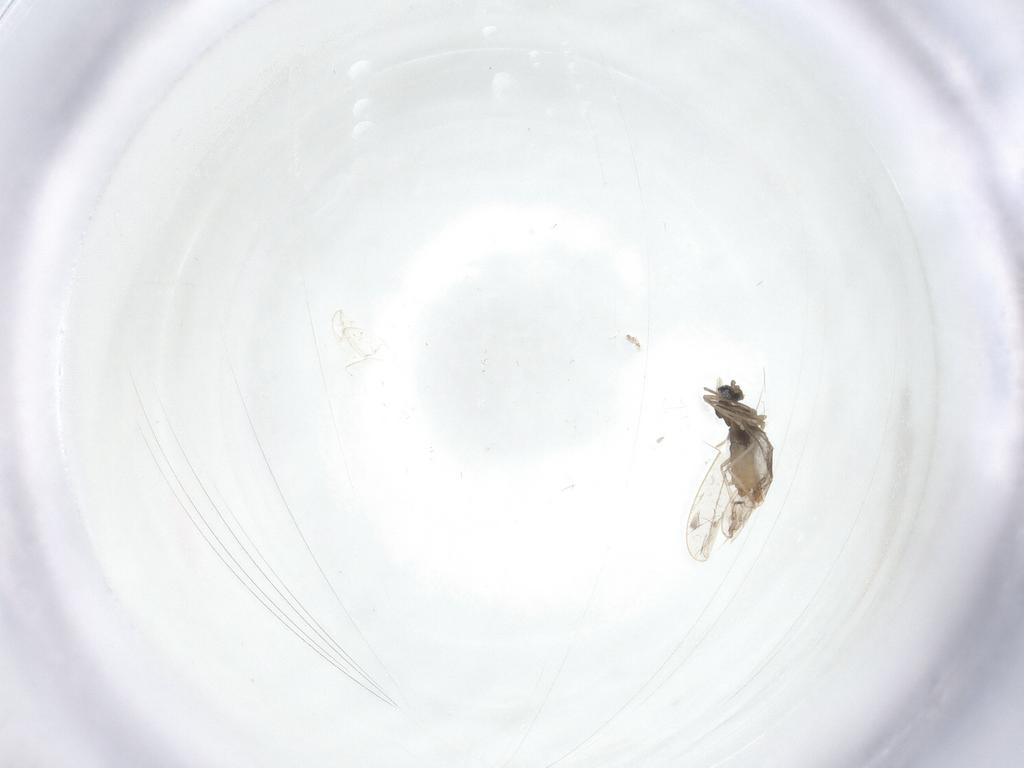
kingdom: Animalia
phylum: Arthropoda
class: Insecta
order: Diptera
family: Cecidomyiidae
